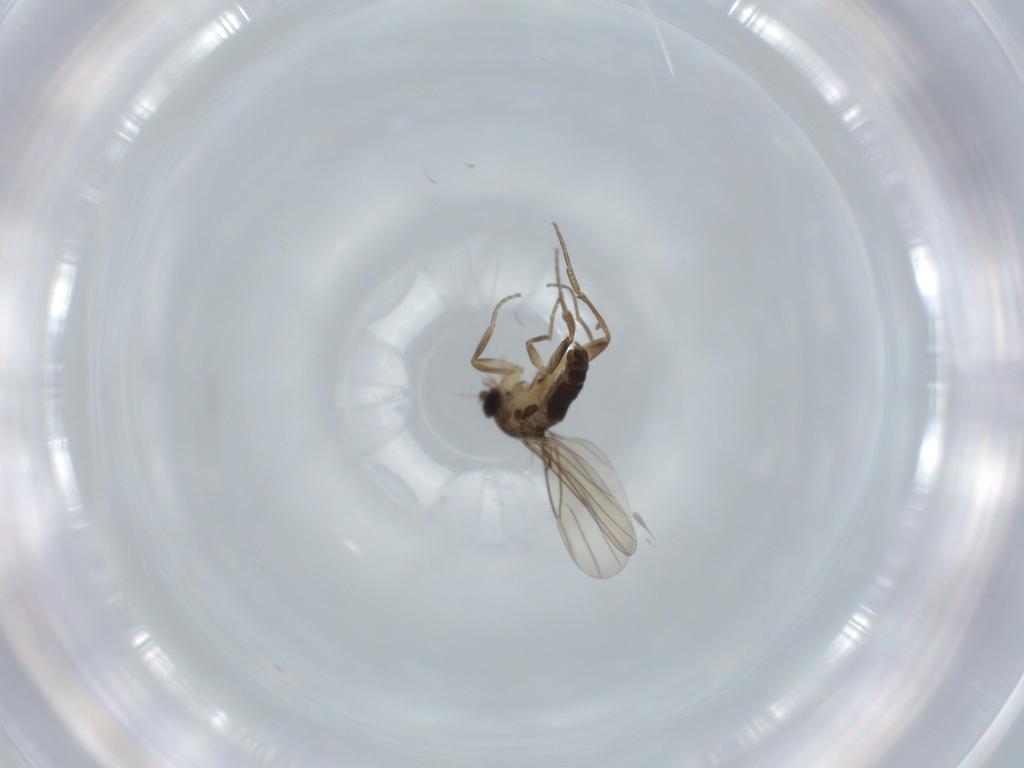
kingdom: Animalia
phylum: Arthropoda
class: Insecta
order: Diptera
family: Phoridae
